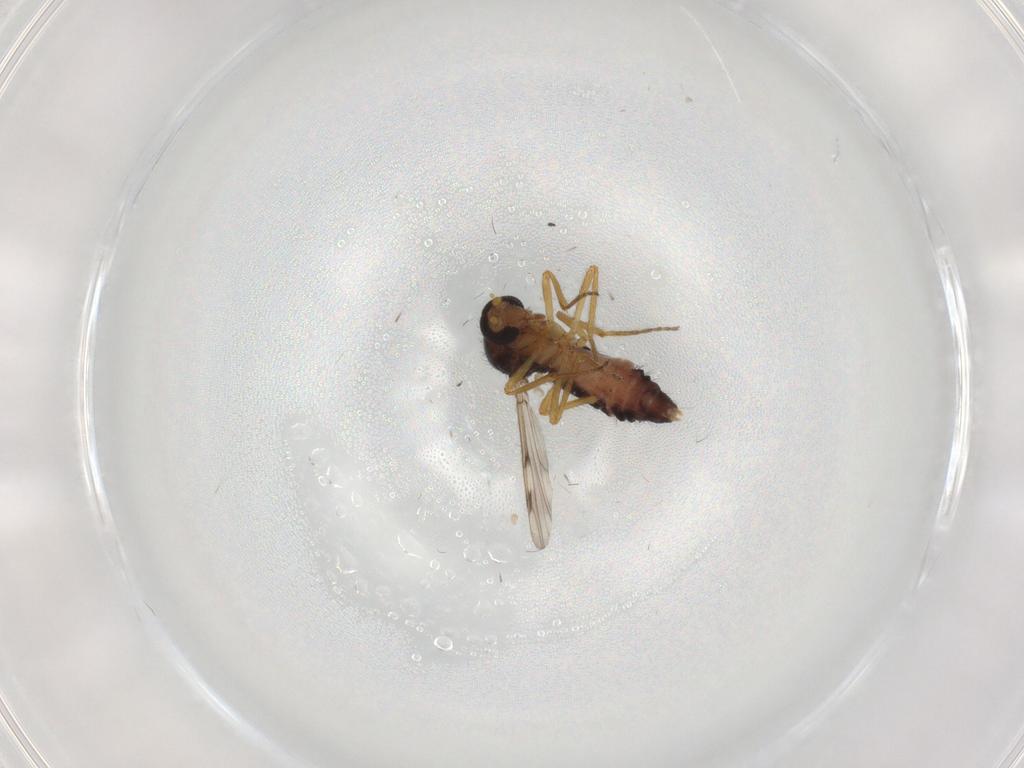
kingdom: Animalia
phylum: Arthropoda
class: Insecta
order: Diptera
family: Ceratopogonidae
